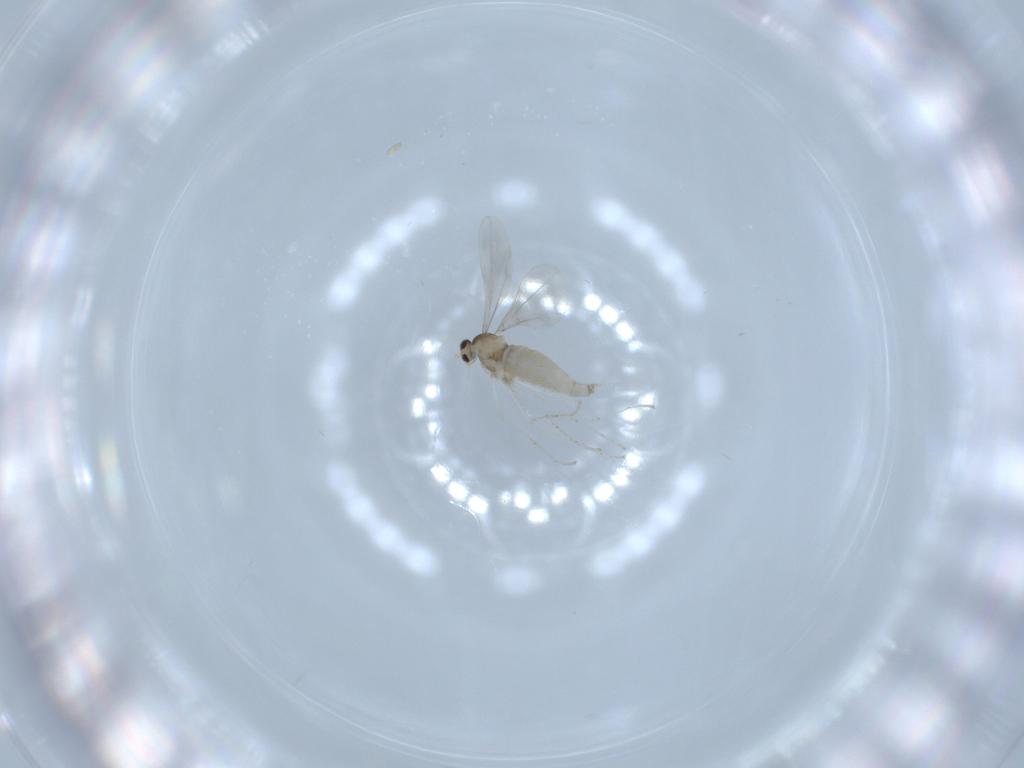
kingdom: Animalia
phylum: Arthropoda
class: Insecta
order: Diptera
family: Cecidomyiidae
